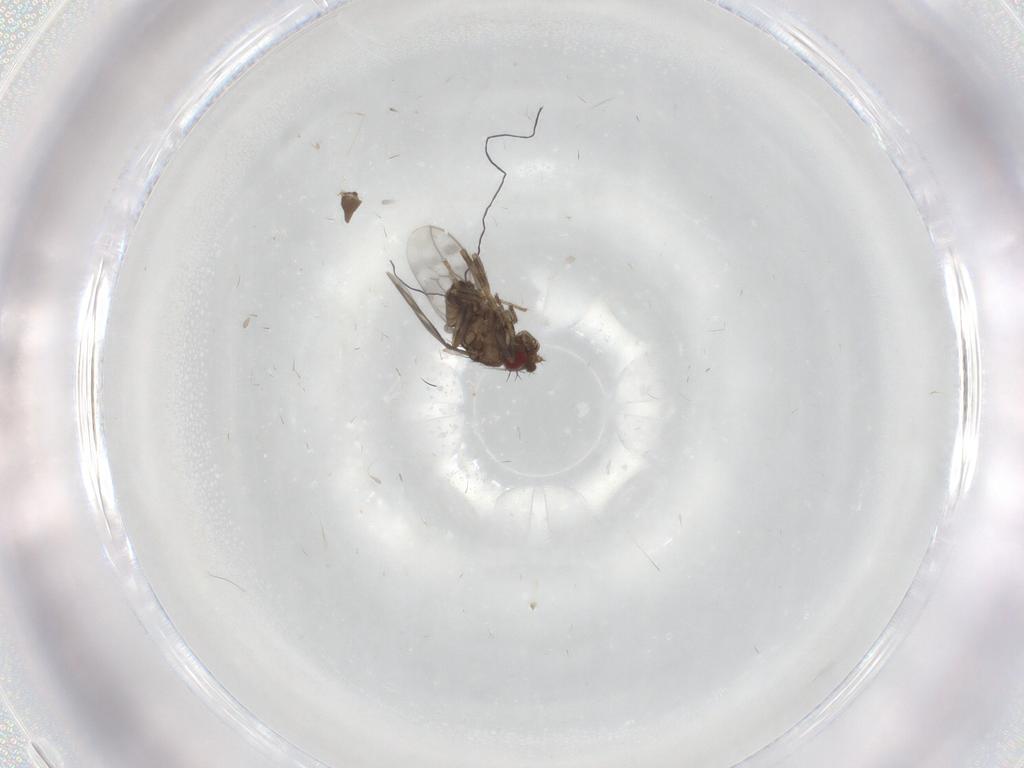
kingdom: Animalia
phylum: Arthropoda
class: Insecta
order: Diptera
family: Sphaeroceridae
